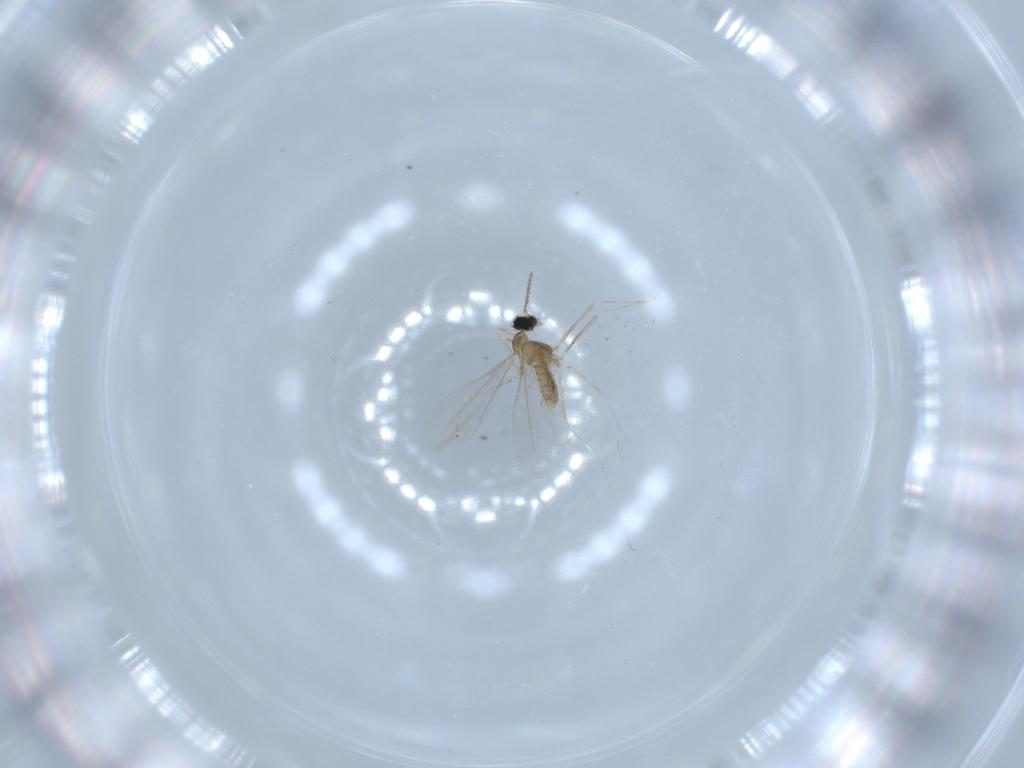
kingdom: Animalia
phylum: Arthropoda
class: Insecta
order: Diptera
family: Cecidomyiidae
